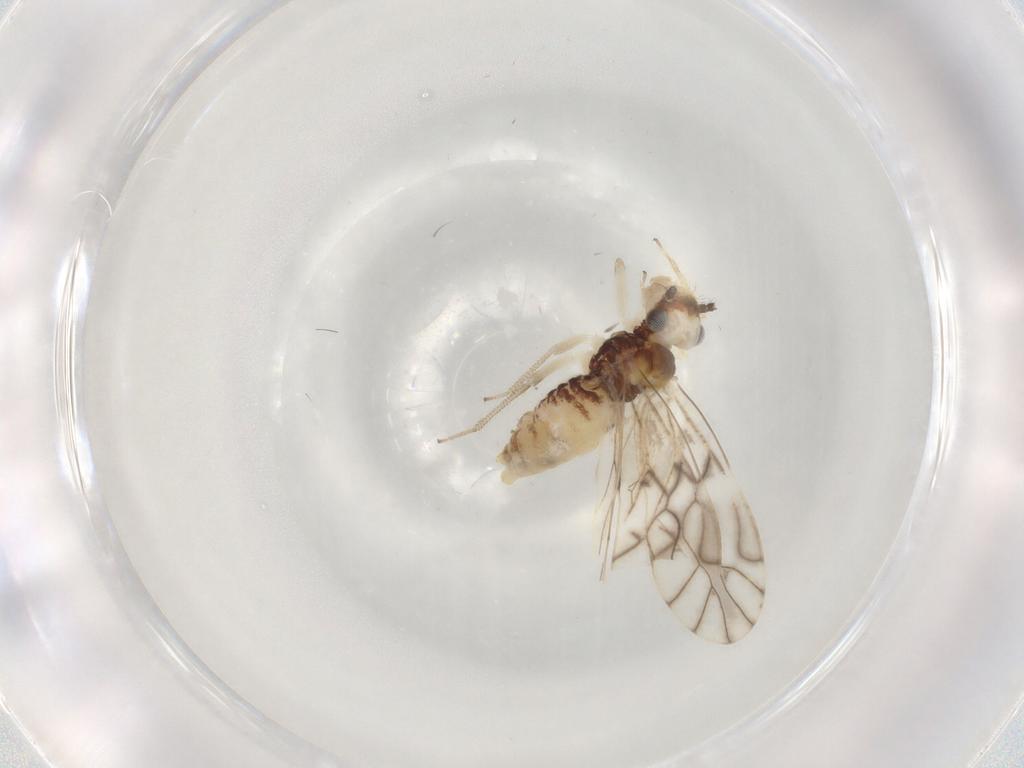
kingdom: Animalia
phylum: Arthropoda
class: Insecta
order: Psocodea
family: Caeciliusidae
